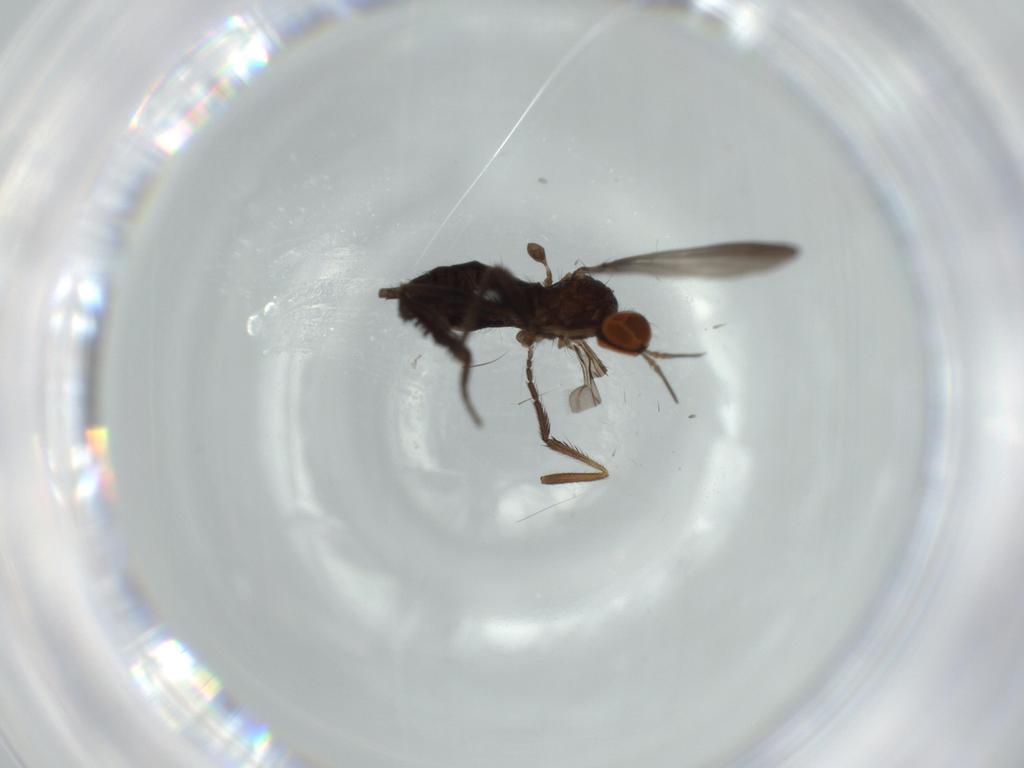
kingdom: Animalia
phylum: Arthropoda
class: Insecta
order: Diptera
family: Empididae
